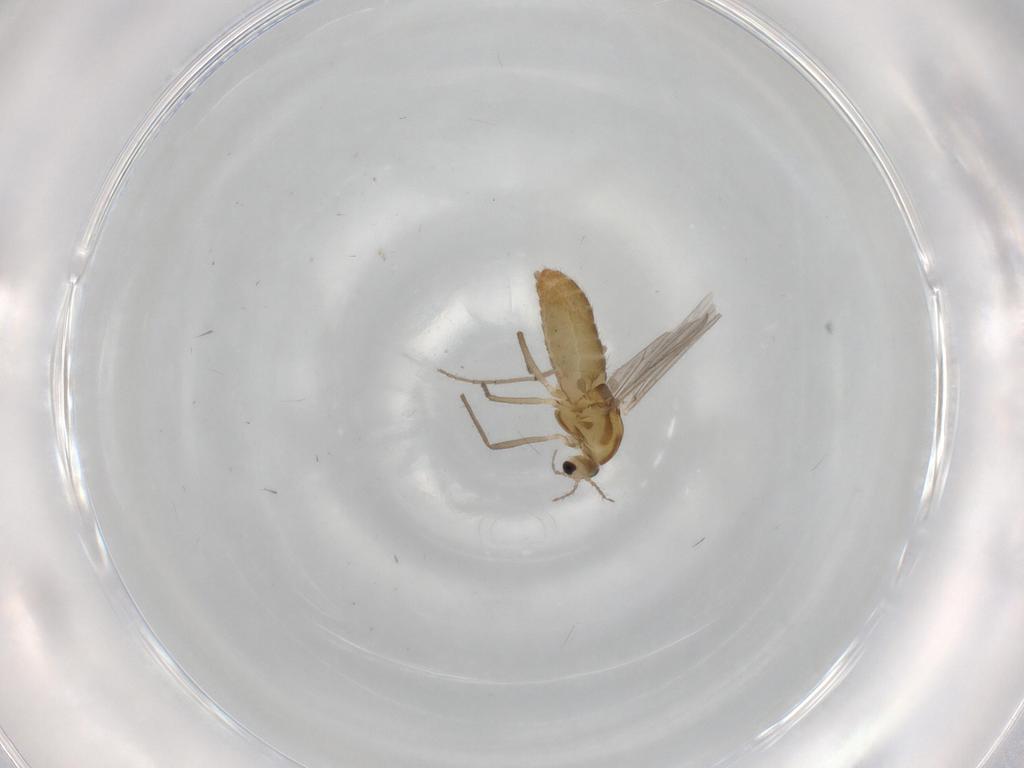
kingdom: Animalia
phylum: Arthropoda
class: Insecta
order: Diptera
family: Chironomidae
